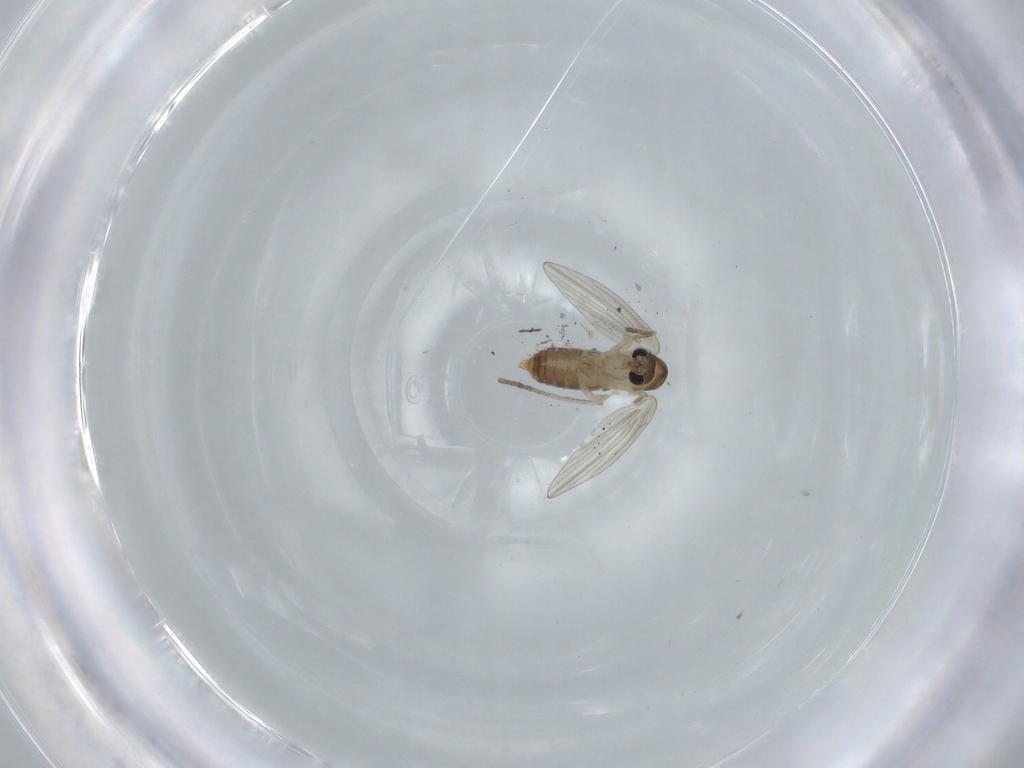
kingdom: Animalia
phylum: Arthropoda
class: Insecta
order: Diptera
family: Psychodidae
